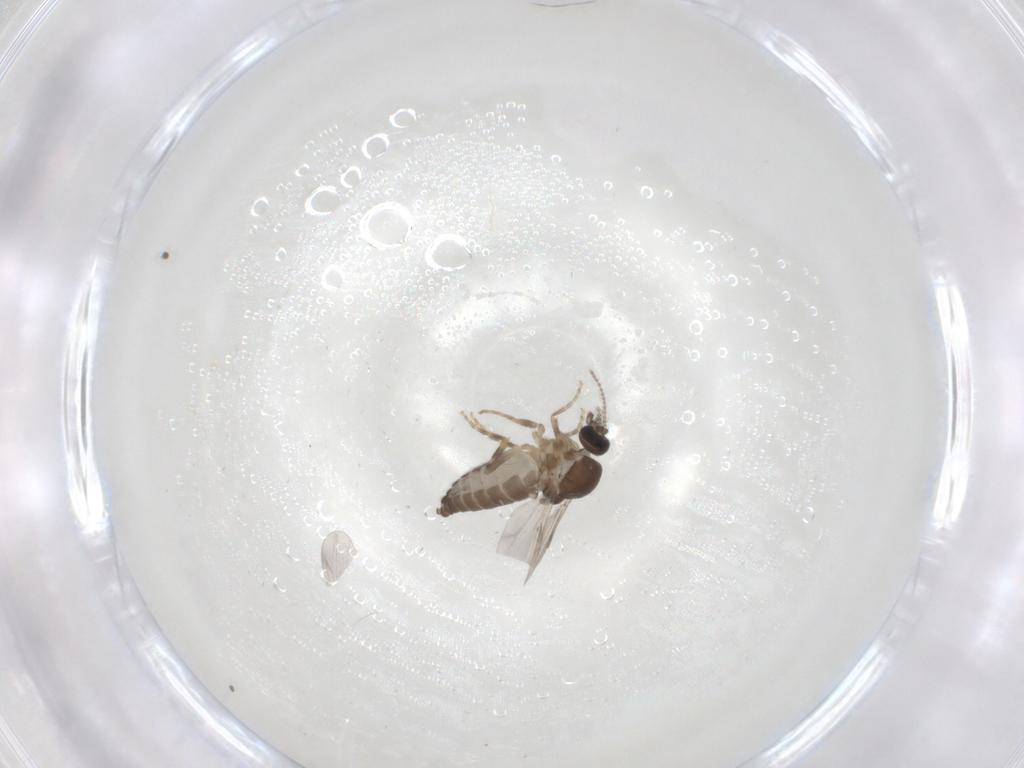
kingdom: Animalia
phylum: Arthropoda
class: Insecta
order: Diptera
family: Ceratopogonidae
